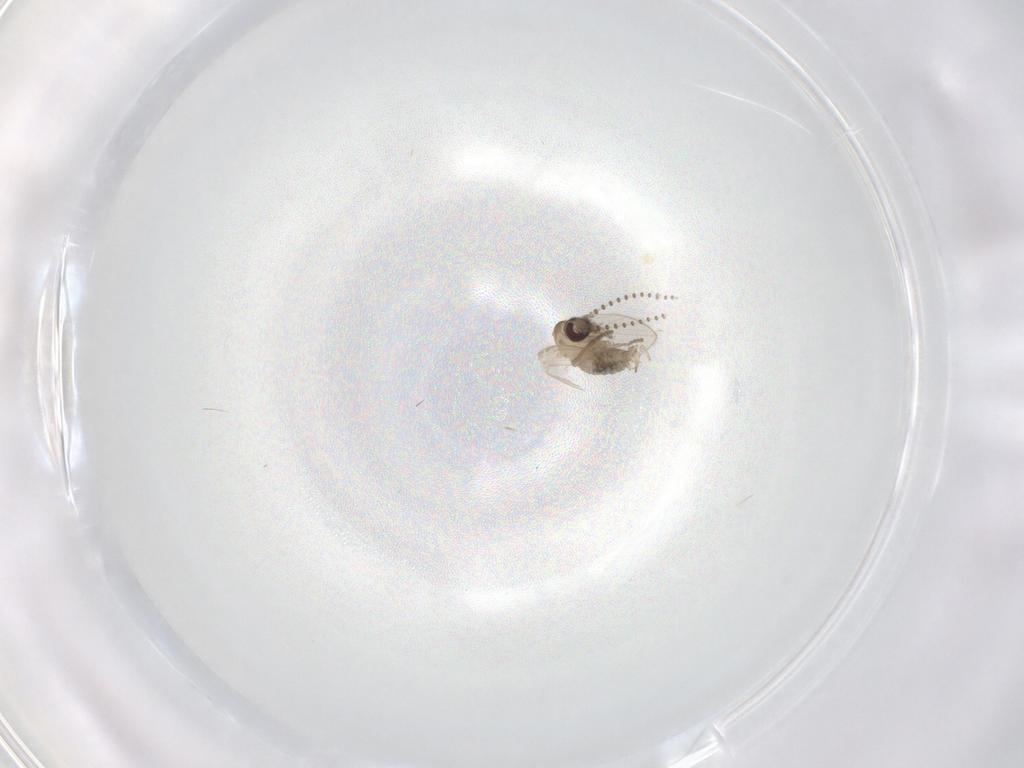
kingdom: Animalia
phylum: Arthropoda
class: Insecta
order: Diptera
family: Psychodidae
